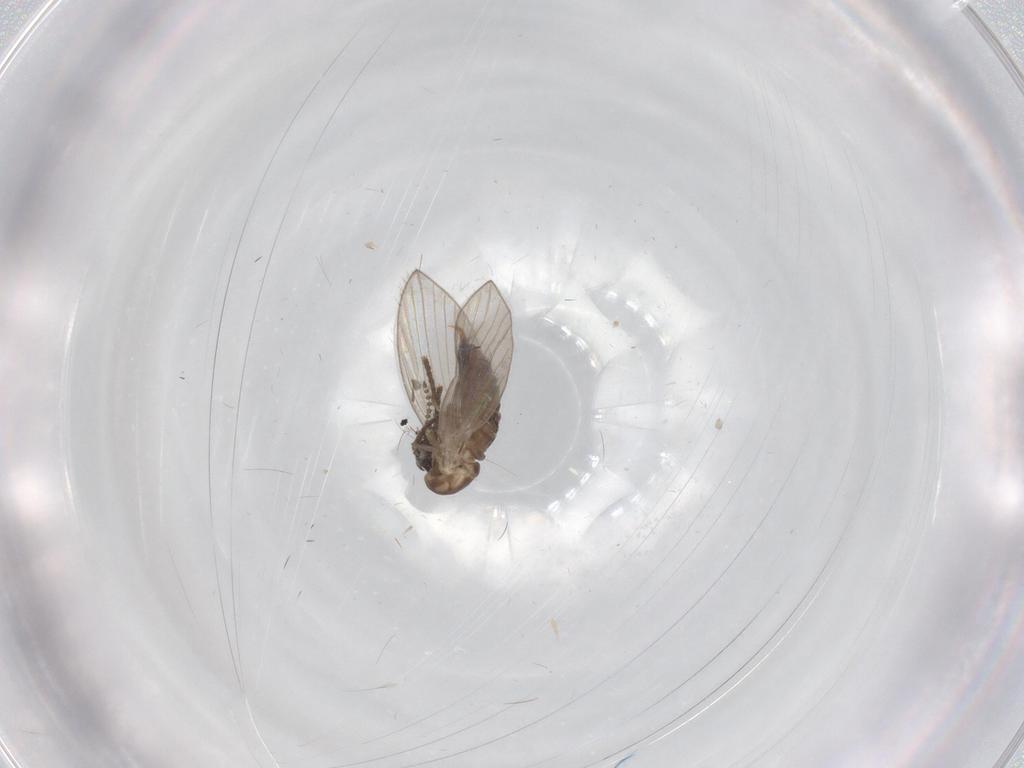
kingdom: Animalia
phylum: Arthropoda
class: Insecta
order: Diptera
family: Psychodidae
